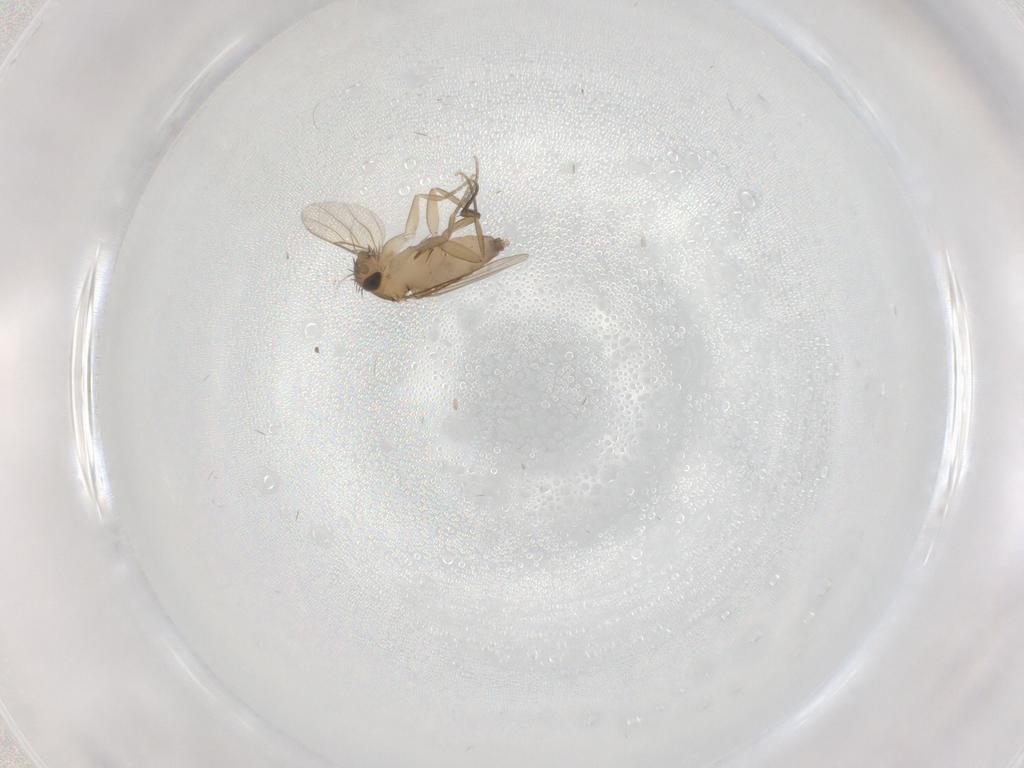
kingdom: Animalia
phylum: Arthropoda
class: Insecta
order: Diptera
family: Phoridae
